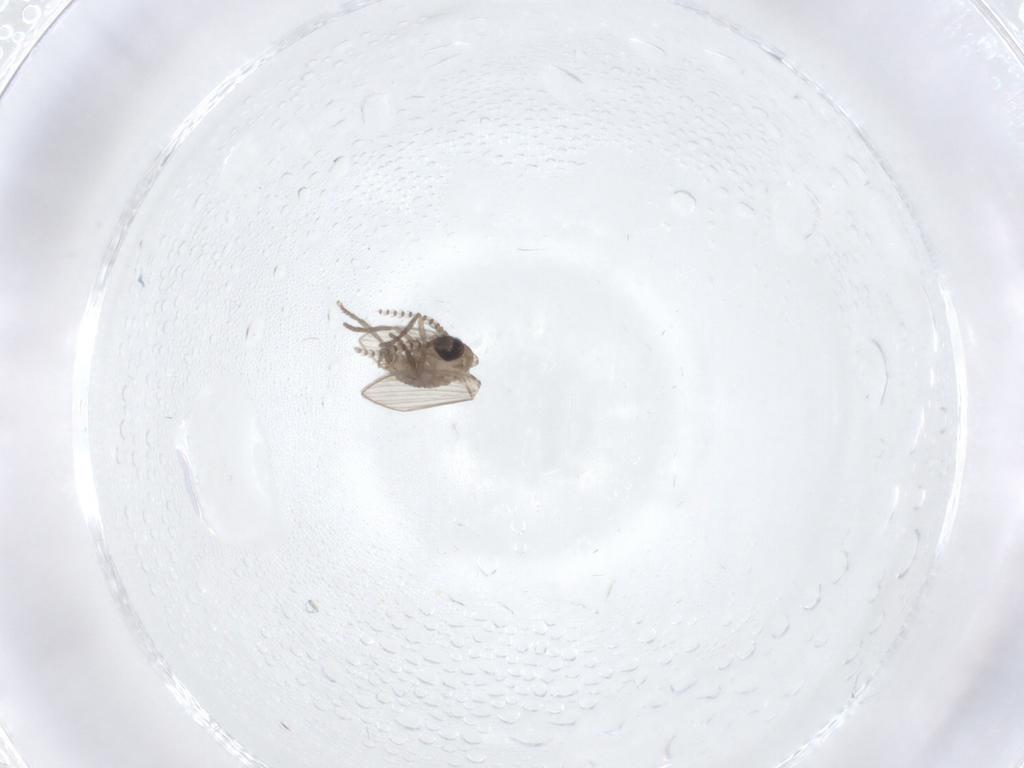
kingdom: Animalia
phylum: Arthropoda
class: Insecta
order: Diptera
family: Psychodidae
